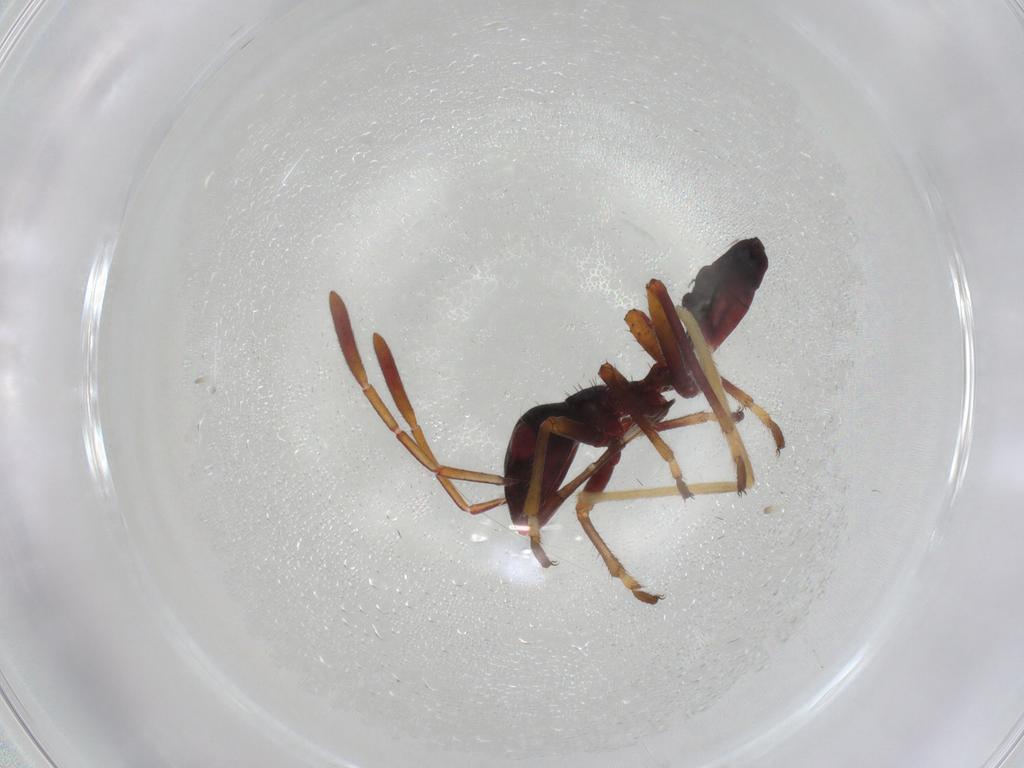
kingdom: Animalia
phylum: Arthropoda
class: Insecta
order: Hemiptera
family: Alydidae
